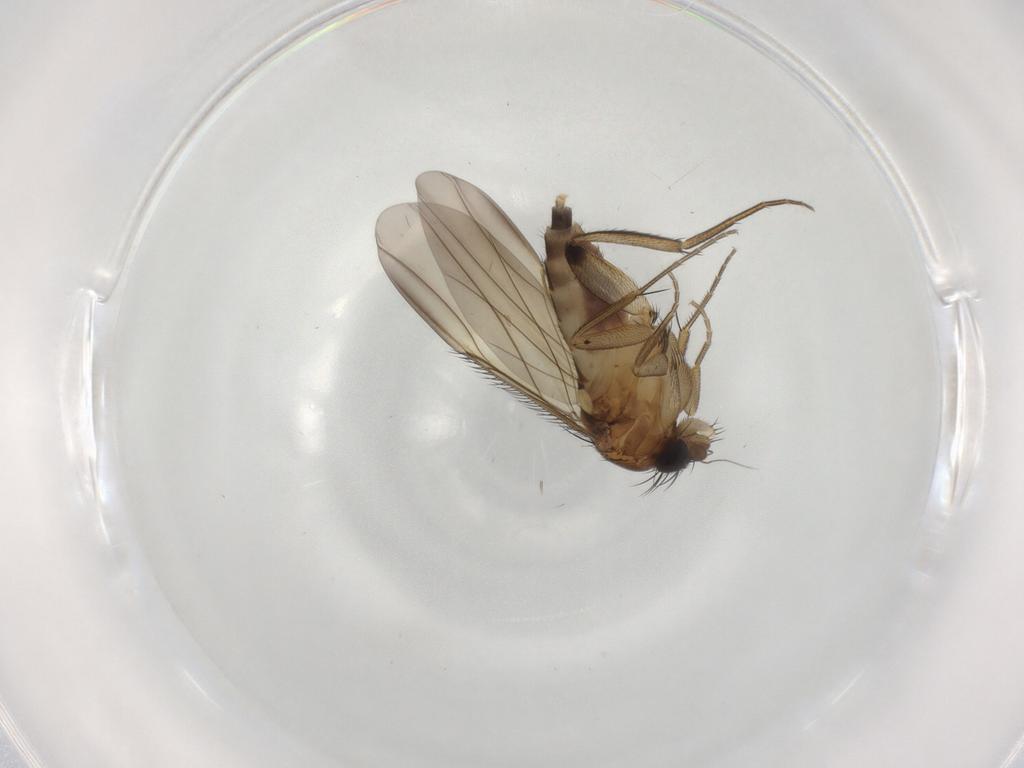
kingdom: Animalia
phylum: Arthropoda
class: Insecta
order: Diptera
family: Phoridae
